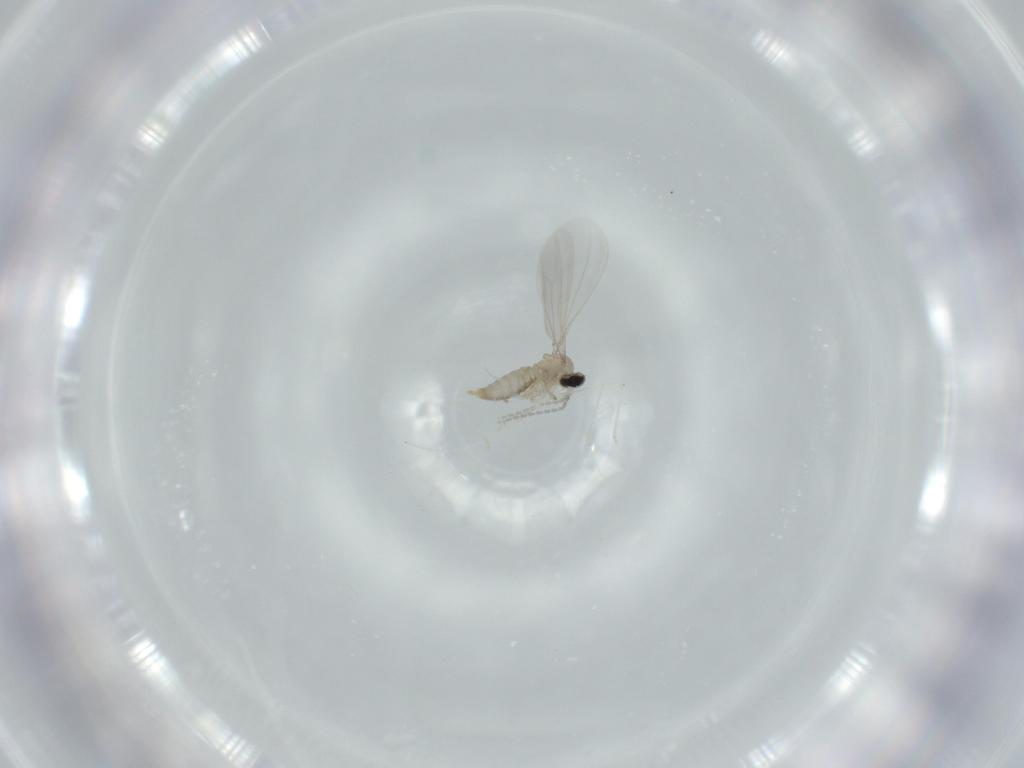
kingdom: Animalia
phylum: Arthropoda
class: Insecta
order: Diptera
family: Cecidomyiidae
